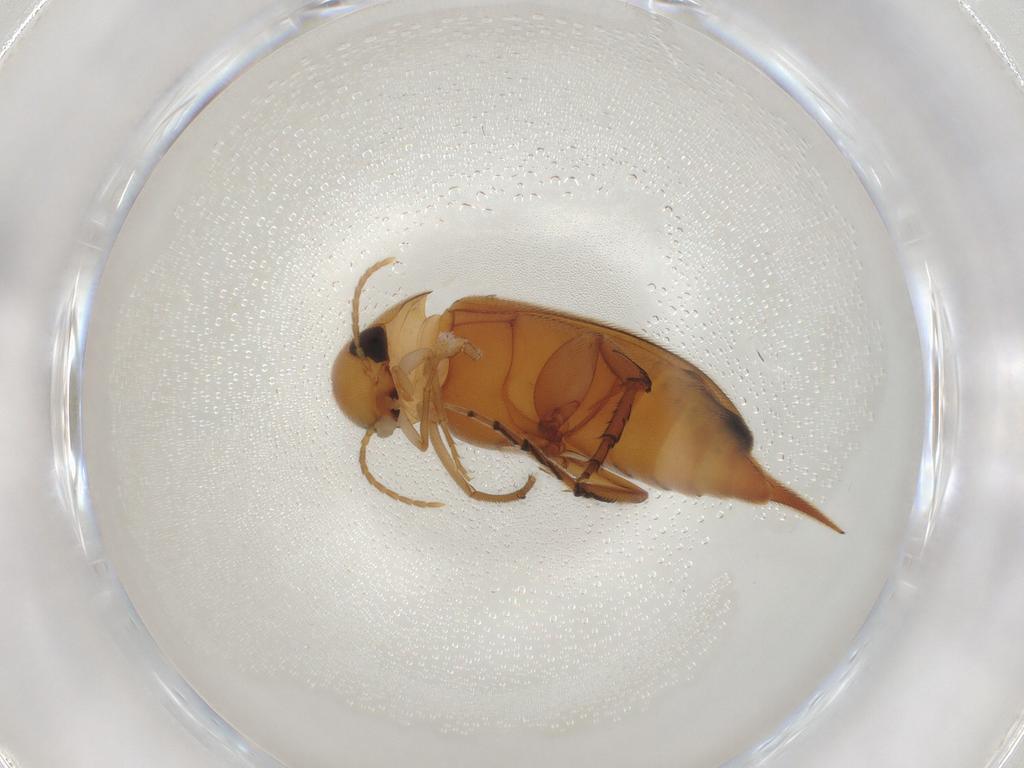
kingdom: Animalia
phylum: Arthropoda
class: Insecta
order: Coleoptera
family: Mordellidae
